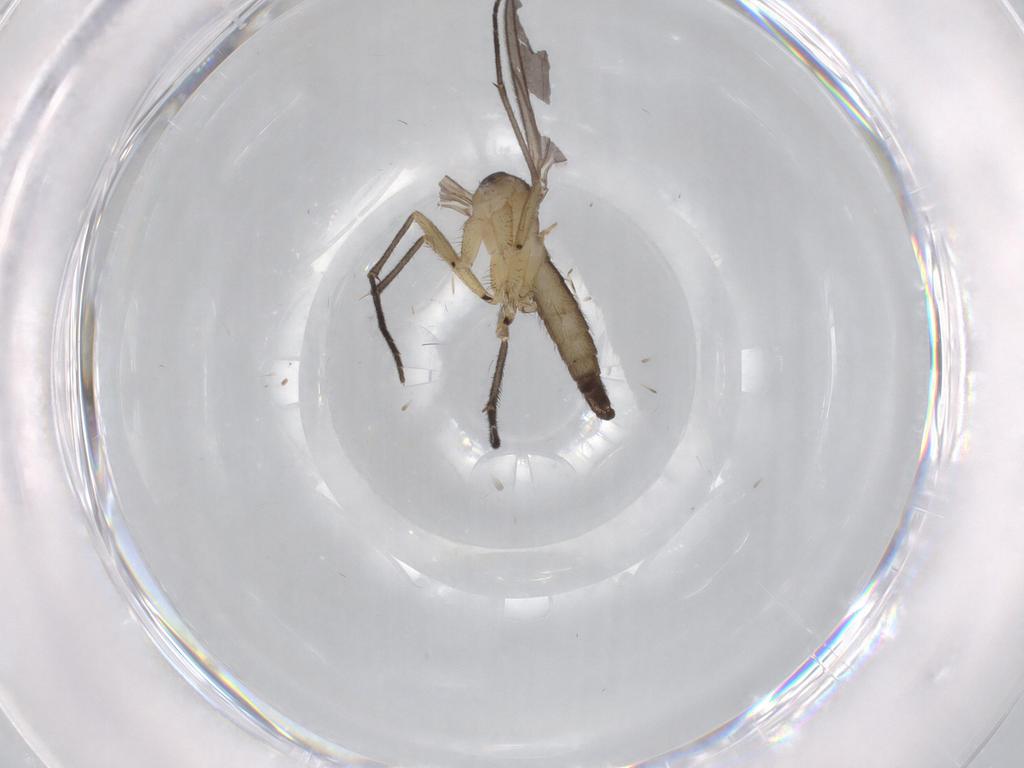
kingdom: Animalia
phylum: Arthropoda
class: Insecta
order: Diptera
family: Sciaridae
